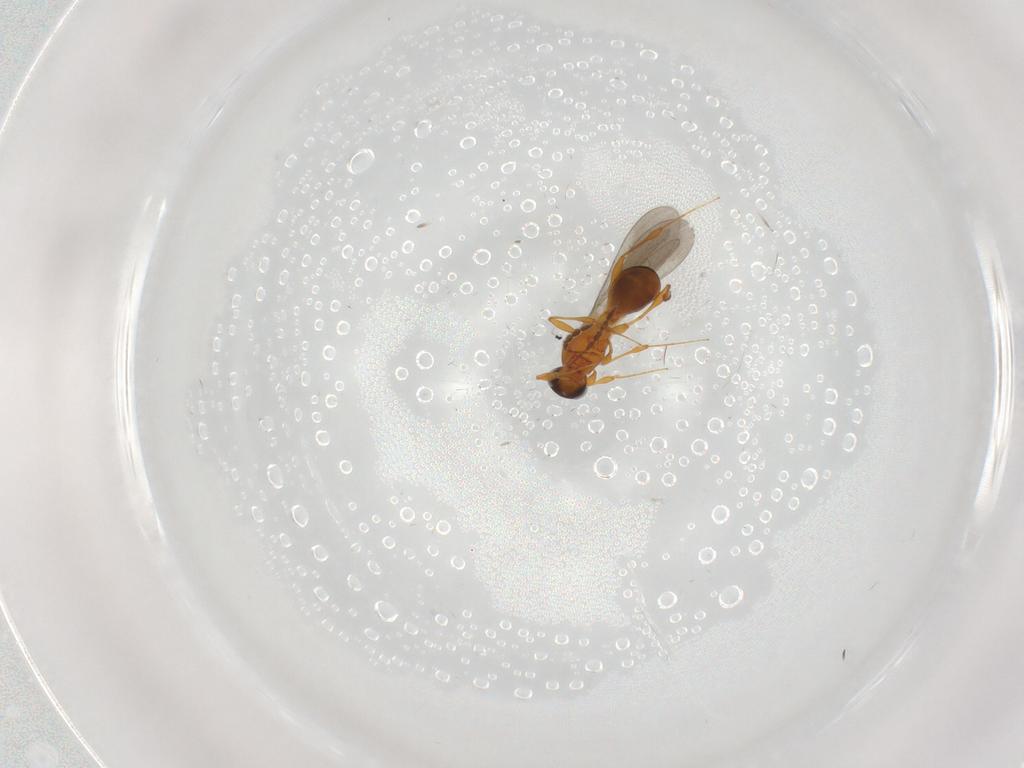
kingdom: Animalia
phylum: Arthropoda
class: Insecta
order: Hymenoptera
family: Platygastridae
